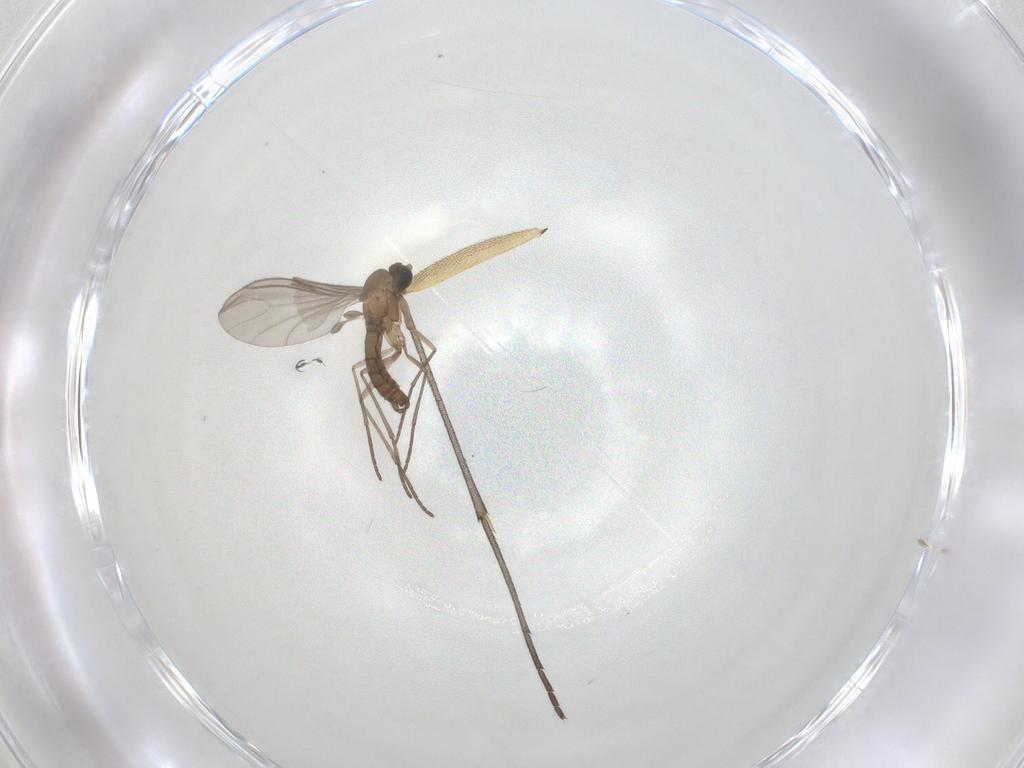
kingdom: Animalia
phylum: Arthropoda
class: Insecta
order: Diptera
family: Sciaridae
